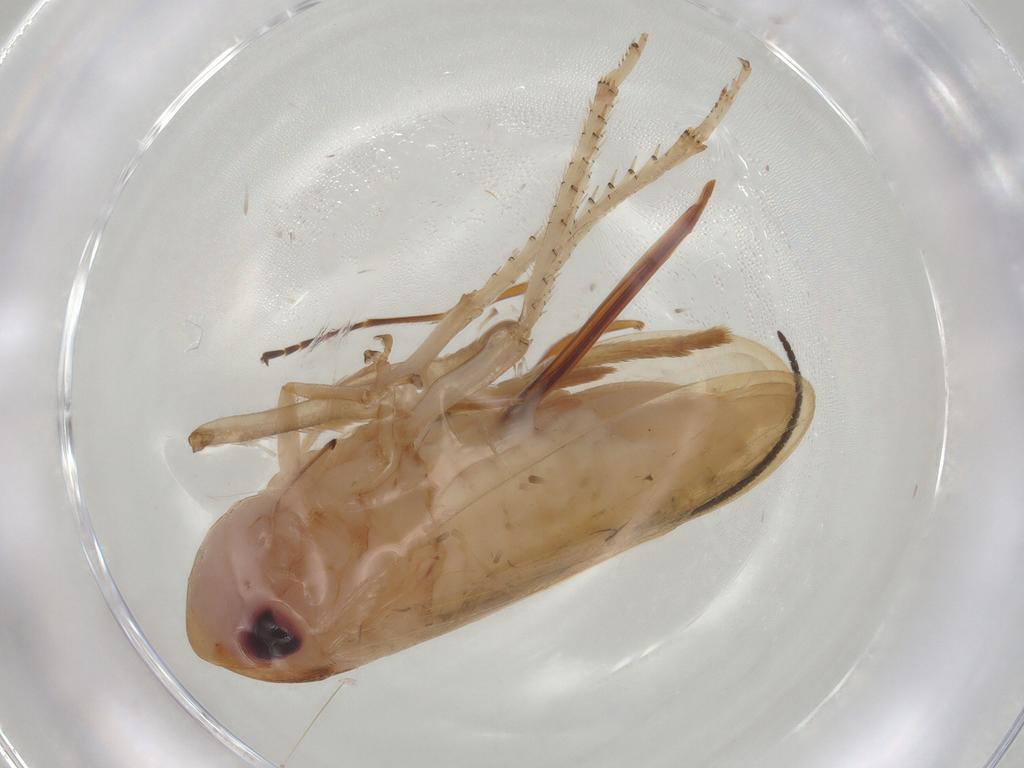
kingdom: Animalia
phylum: Arthropoda
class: Insecta
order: Hemiptera
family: Cicadellidae
